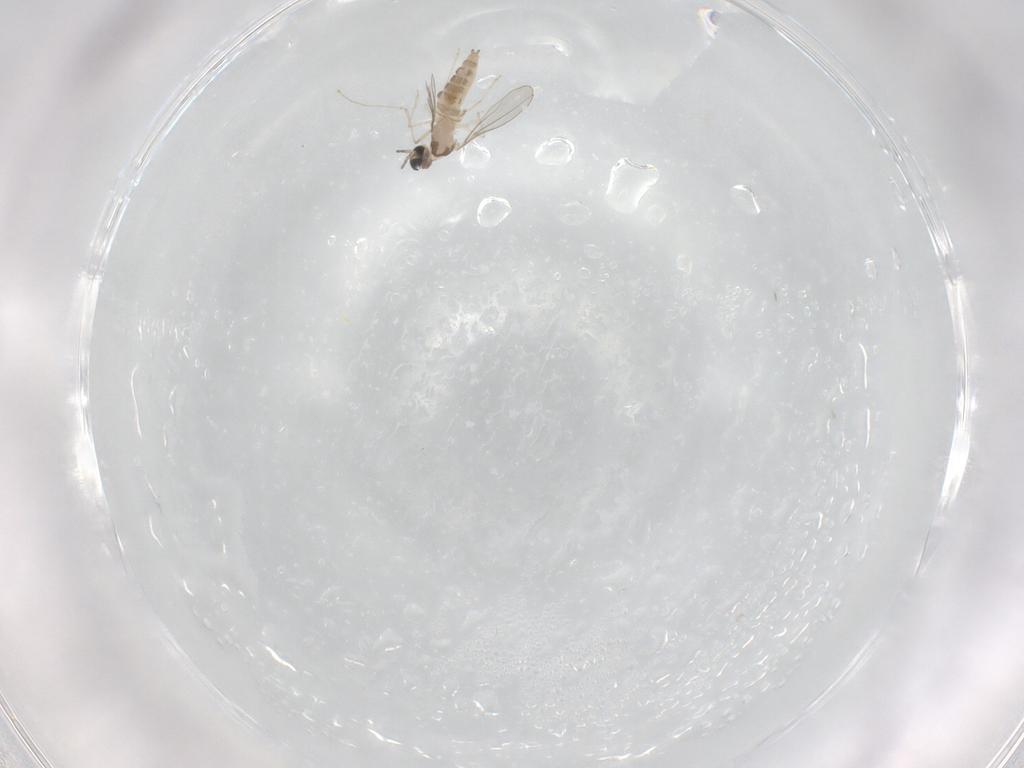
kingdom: Animalia
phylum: Arthropoda
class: Insecta
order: Diptera
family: Cecidomyiidae
